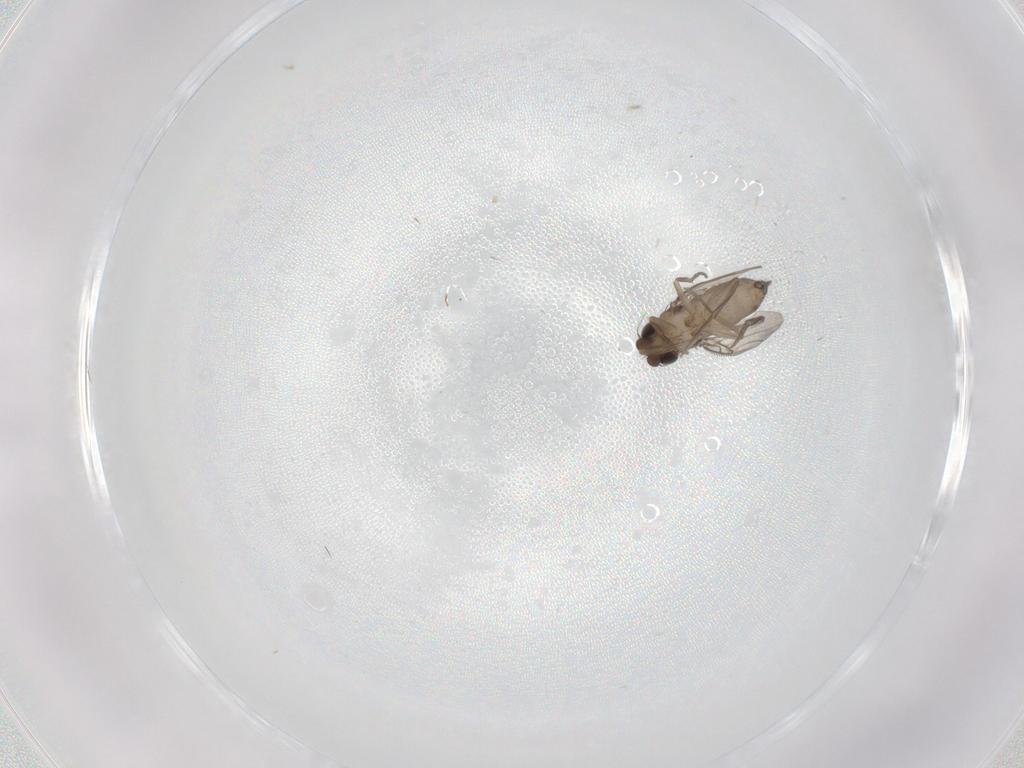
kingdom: Animalia
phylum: Arthropoda
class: Insecta
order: Diptera
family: Phoridae
